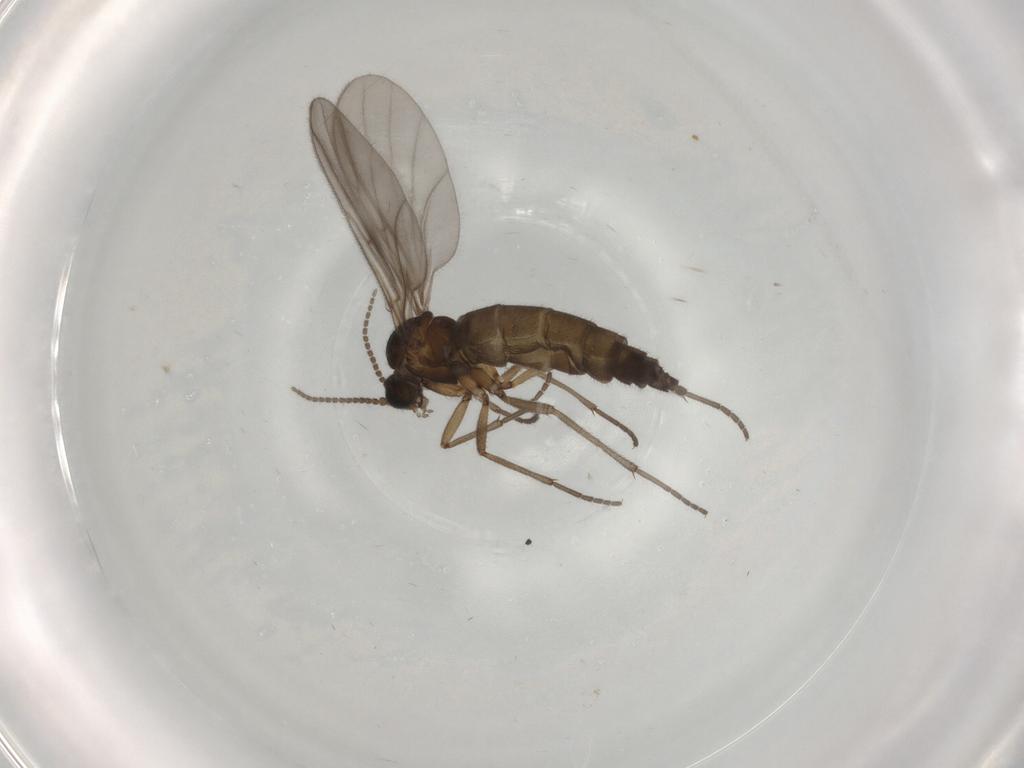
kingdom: Animalia
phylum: Arthropoda
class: Insecta
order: Diptera
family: Sciaridae
